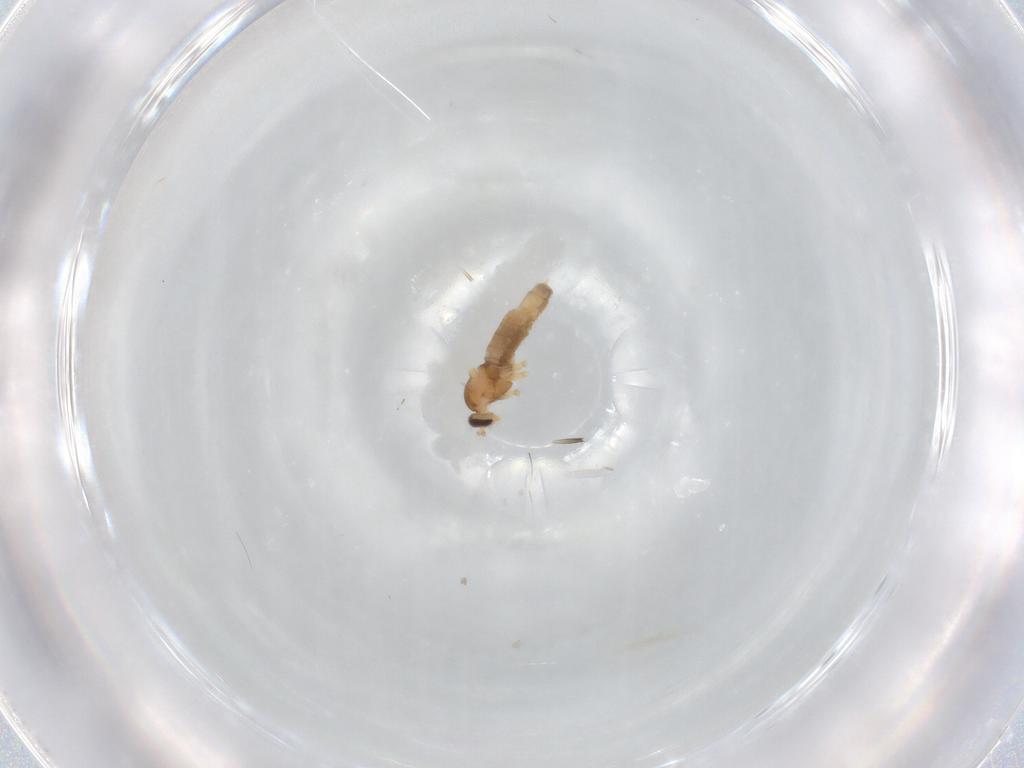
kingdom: Animalia
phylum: Arthropoda
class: Insecta
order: Diptera
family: Cecidomyiidae
